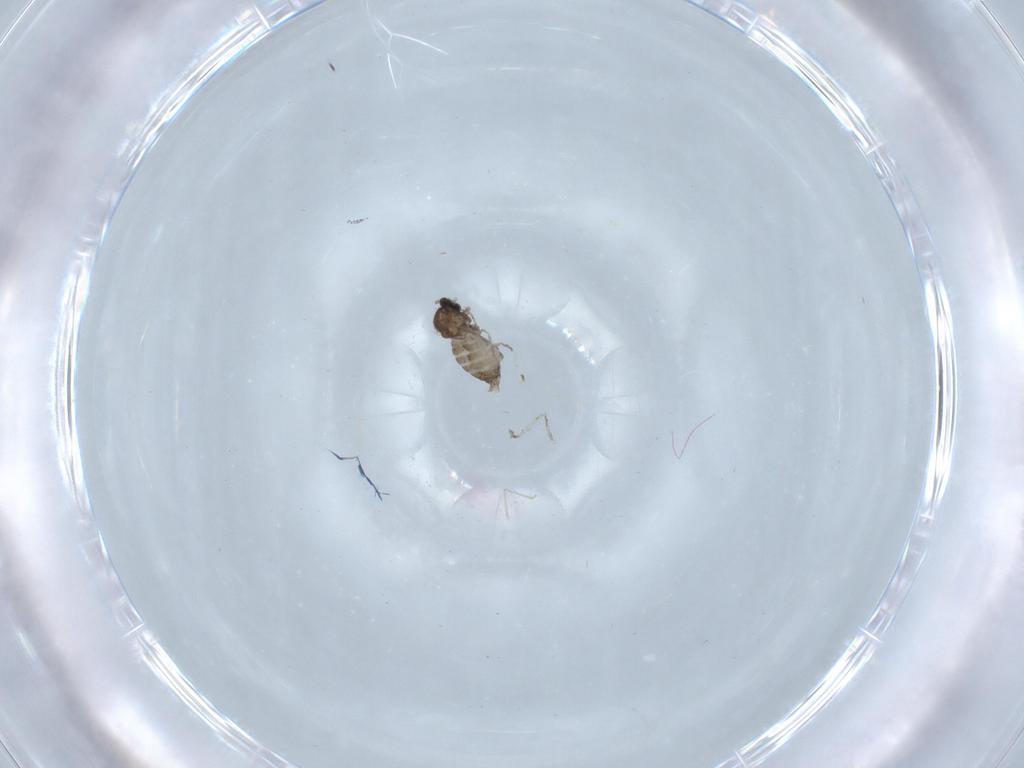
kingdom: Animalia
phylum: Arthropoda
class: Insecta
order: Diptera
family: Cecidomyiidae
